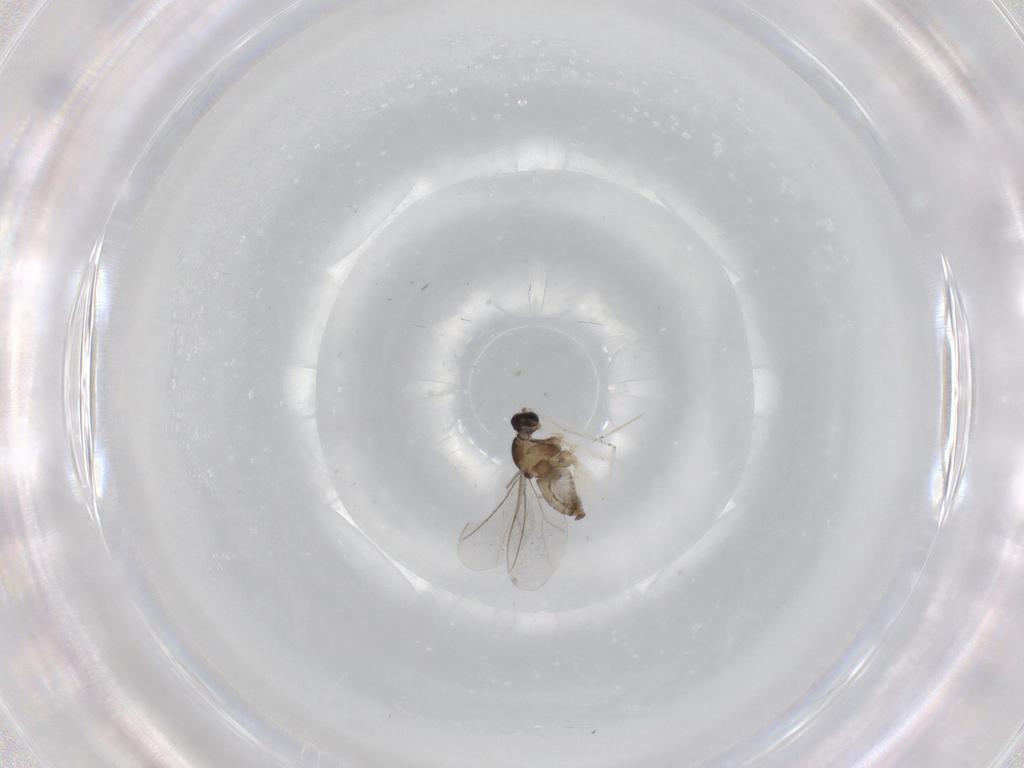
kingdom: Animalia
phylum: Arthropoda
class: Insecta
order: Diptera
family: Cecidomyiidae
